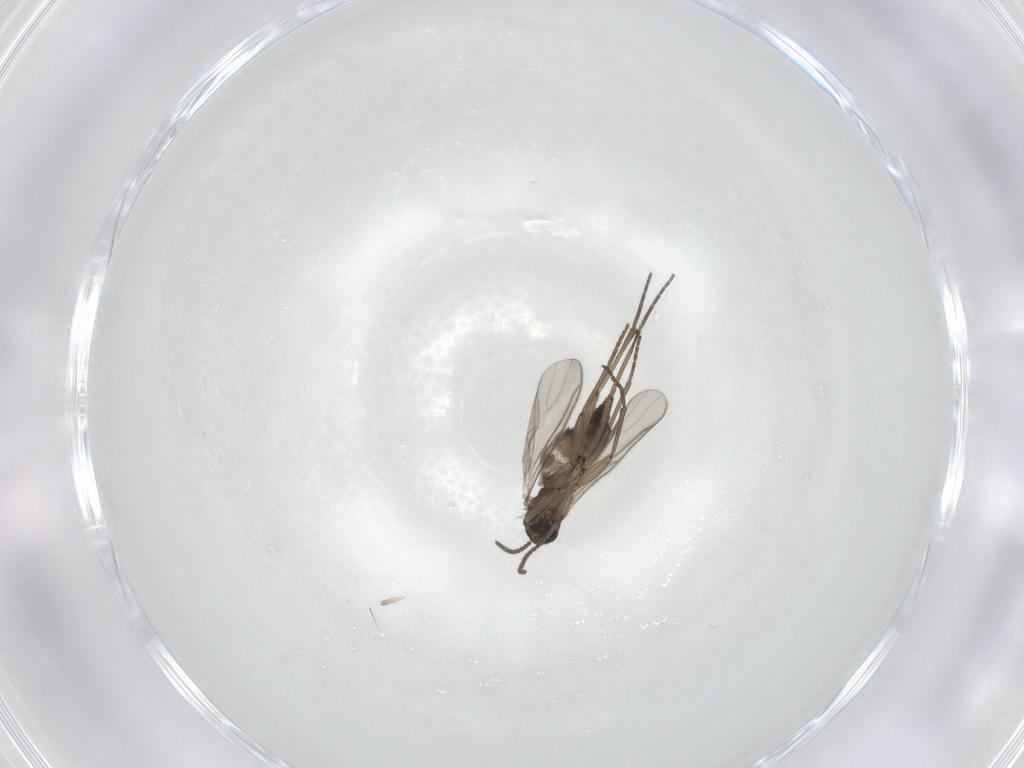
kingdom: Animalia
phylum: Arthropoda
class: Insecta
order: Diptera
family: Sciaridae
